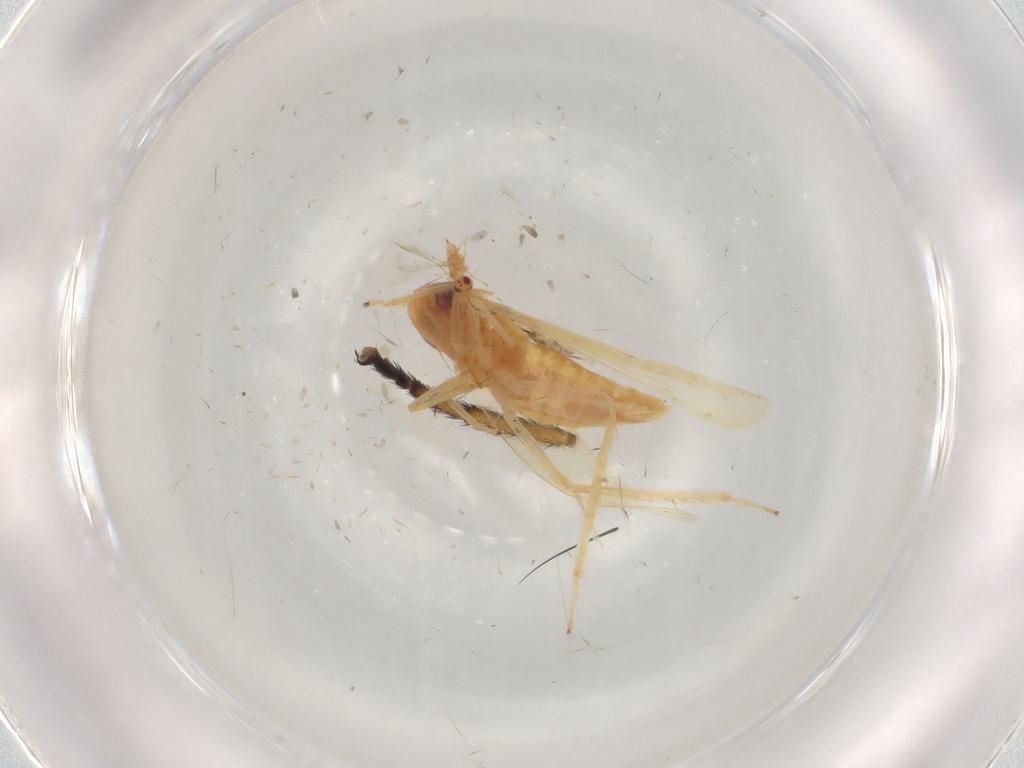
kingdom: Animalia
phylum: Arthropoda
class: Insecta
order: Hemiptera
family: Cicadellidae
